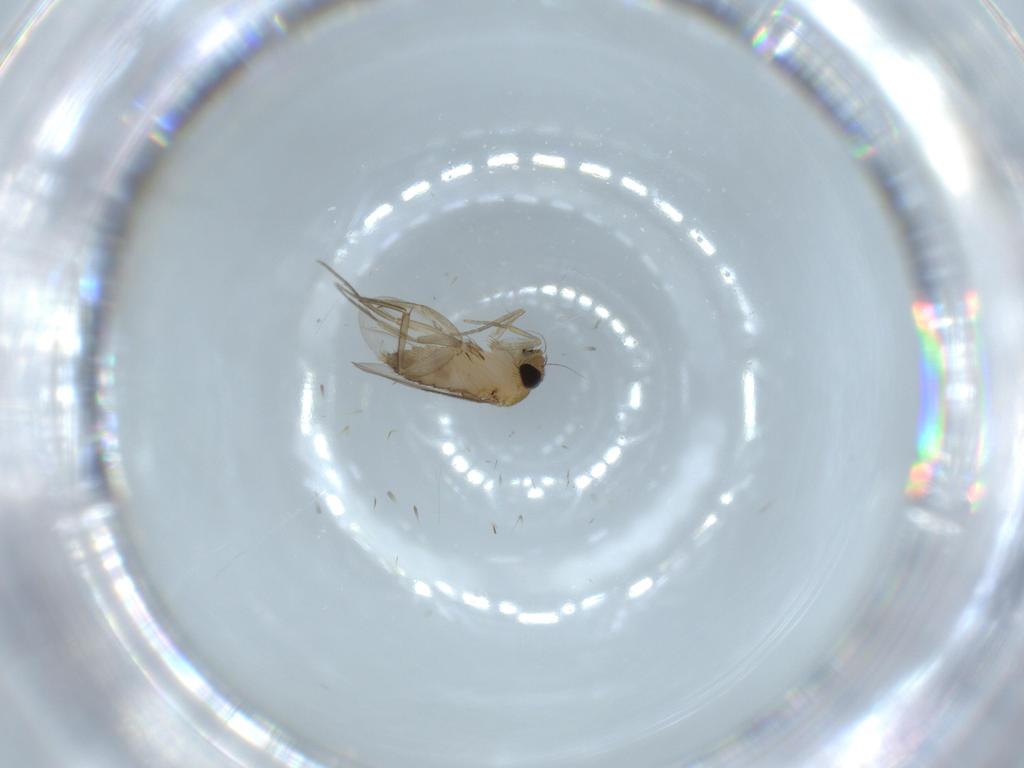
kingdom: Animalia
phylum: Arthropoda
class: Insecta
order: Diptera
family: Phoridae
